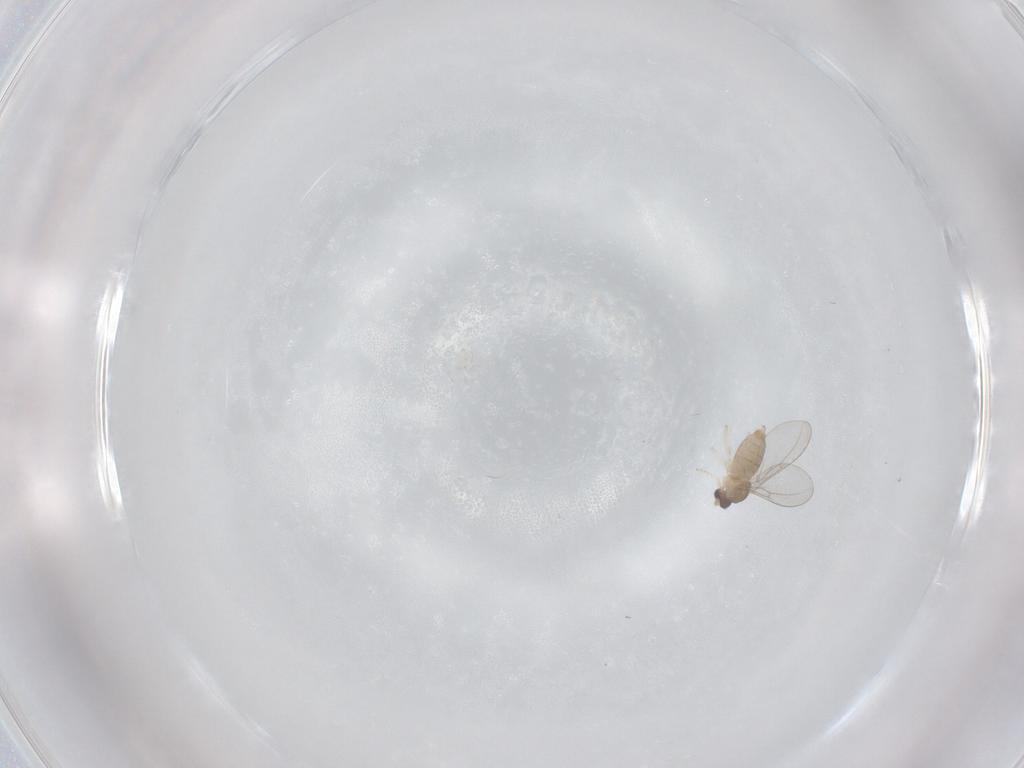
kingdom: Animalia
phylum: Arthropoda
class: Insecta
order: Diptera
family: Cecidomyiidae
